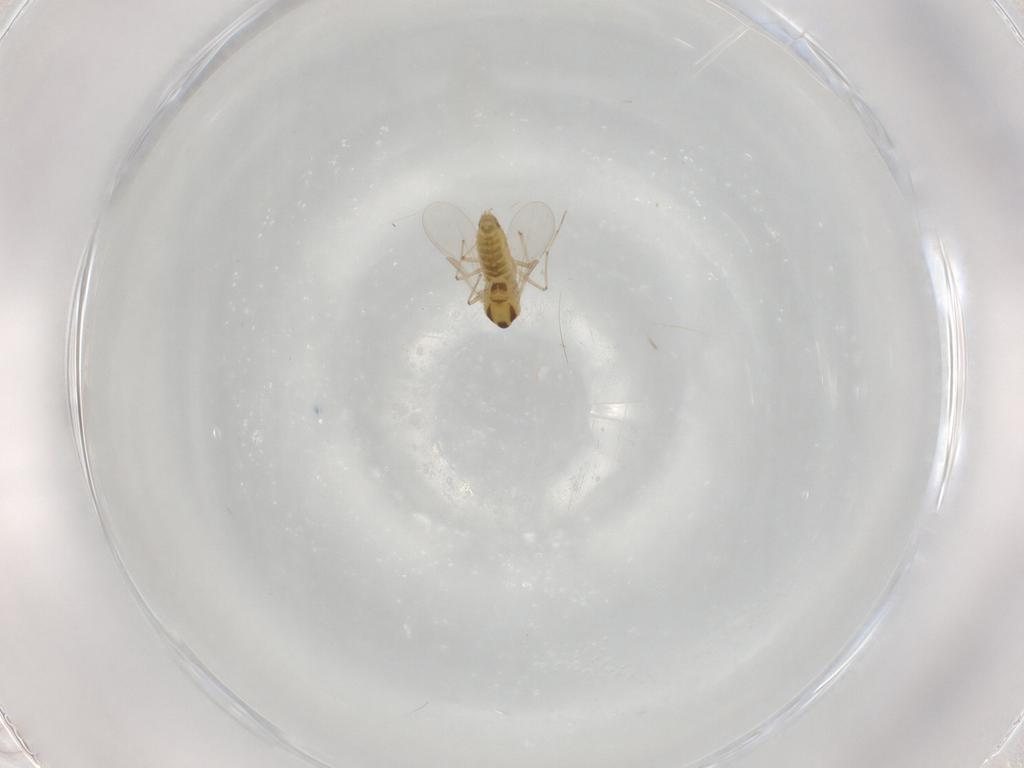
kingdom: Animalia
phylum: Arthropoda
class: Insecta
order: Diptera
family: Chironomidae
